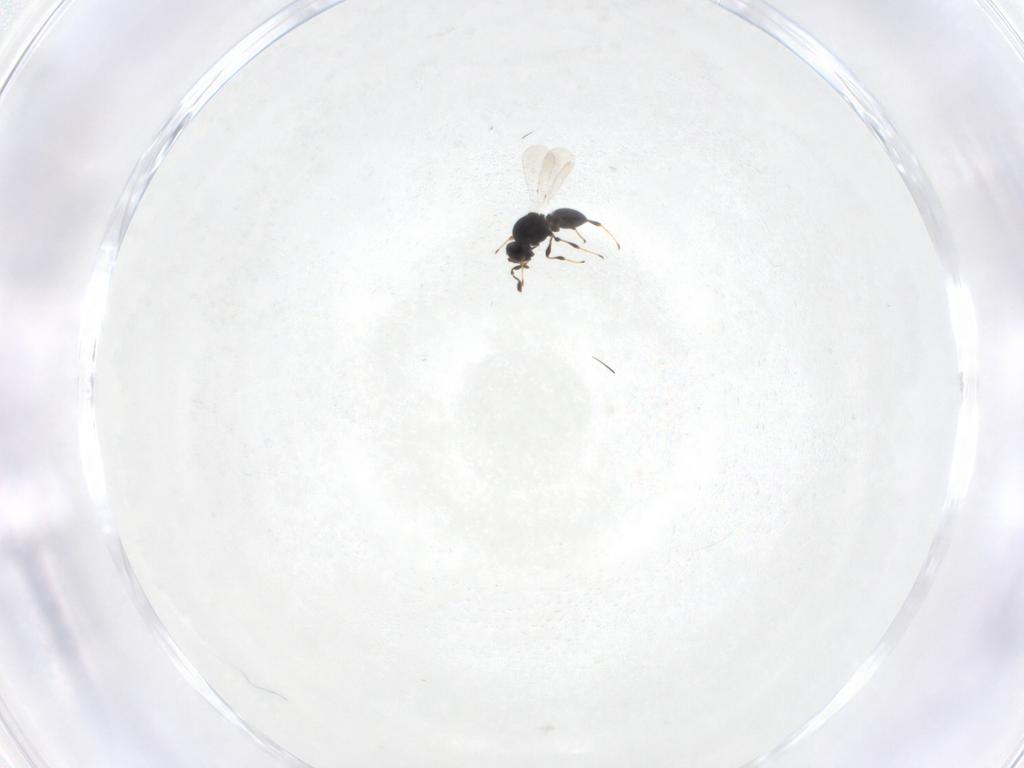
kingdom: Animalia
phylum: Arthropoda
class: Insecta
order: Hymenoptera
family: Platygastridae
